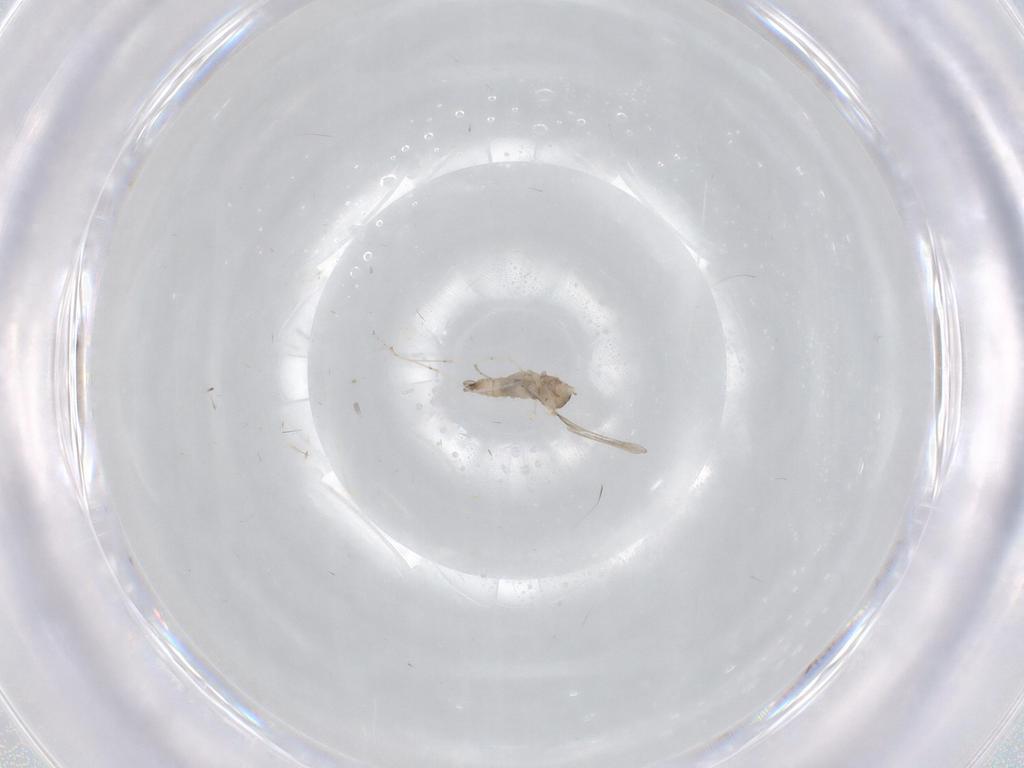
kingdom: Animalia
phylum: Arthropoda
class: Insecta
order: Diptera
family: Cecidomyiidae
